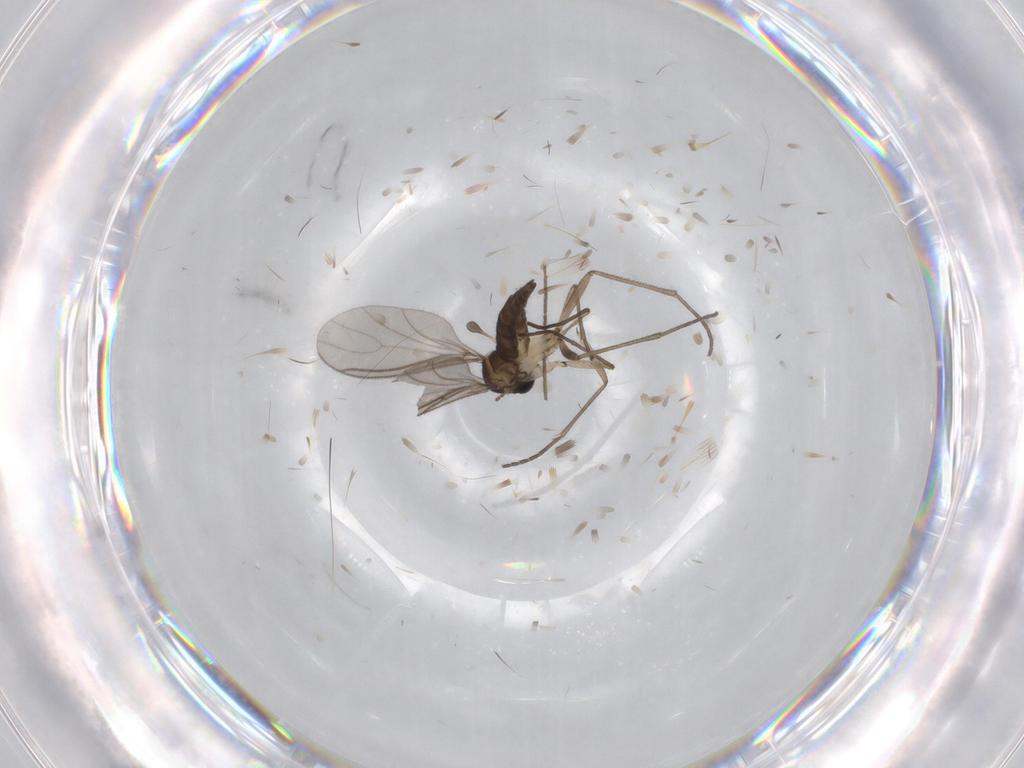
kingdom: Animalia
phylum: Arthropoda
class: Insecta
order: Diptera
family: Sciaridae
